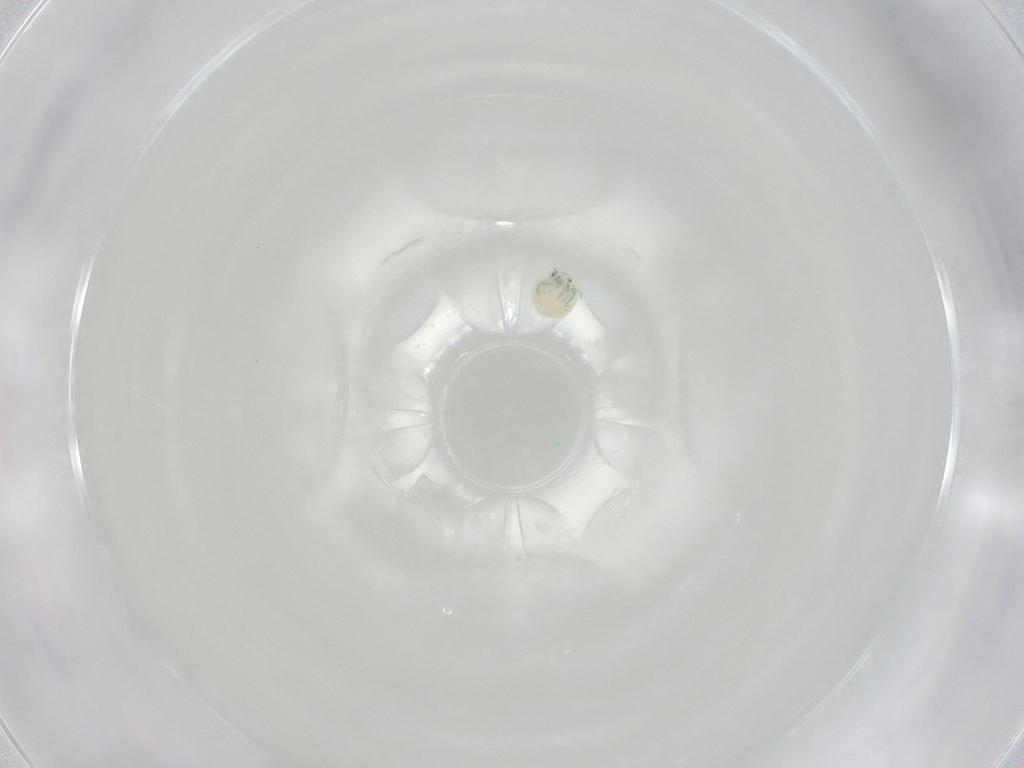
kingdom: Animalia
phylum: Arthropoda
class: Arachnida
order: Trombidiformes
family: Arrenuridae
